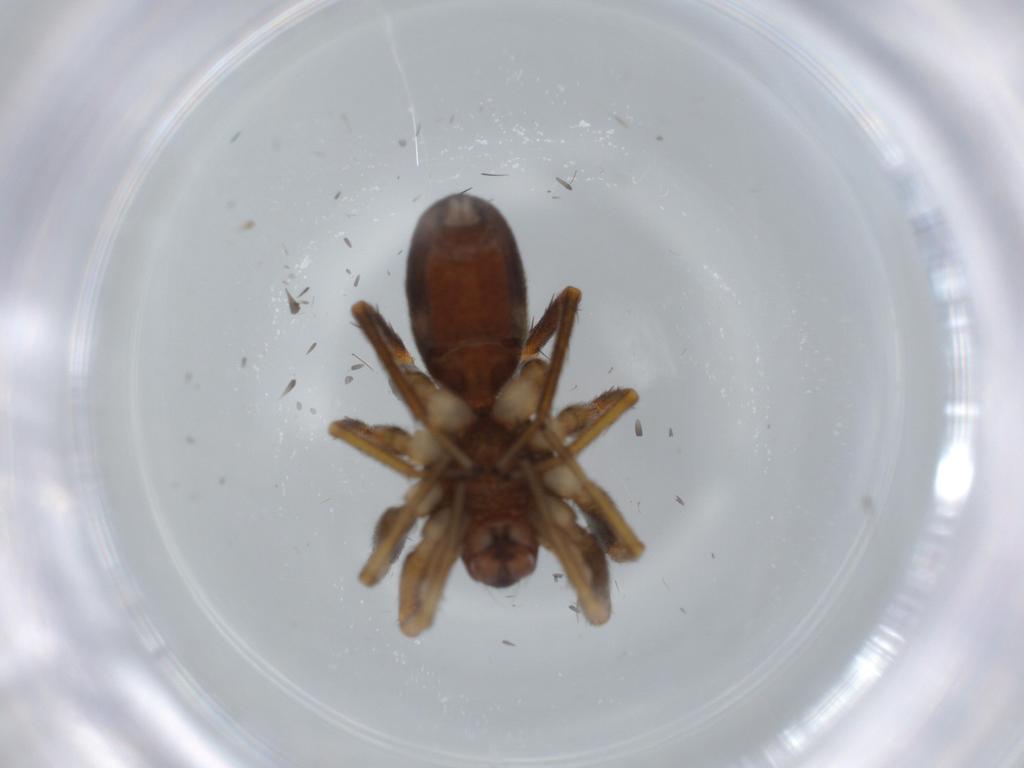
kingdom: Animalia
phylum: Arthropoda
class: Arachnida
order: Araneae
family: Corinnidae
